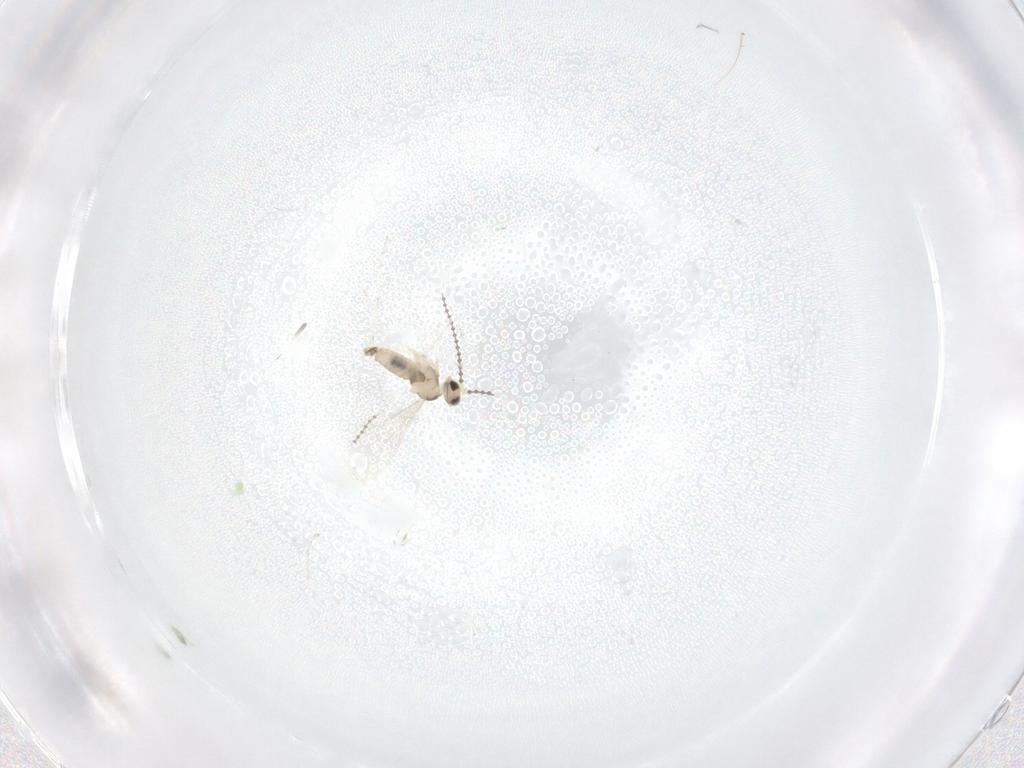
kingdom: Animalia
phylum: Arthropoda
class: Insecta
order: Diptera
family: Cecidomyiidae
